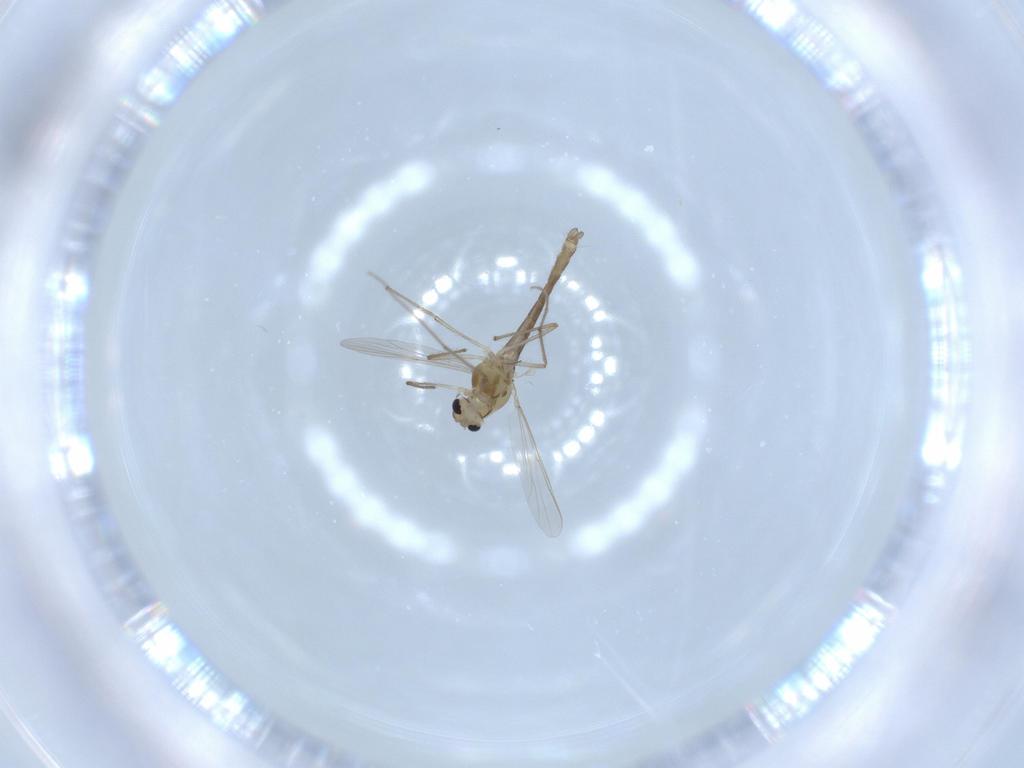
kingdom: Animalia
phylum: Arthropoda
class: Insecta
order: Diptera
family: Chironomidae
